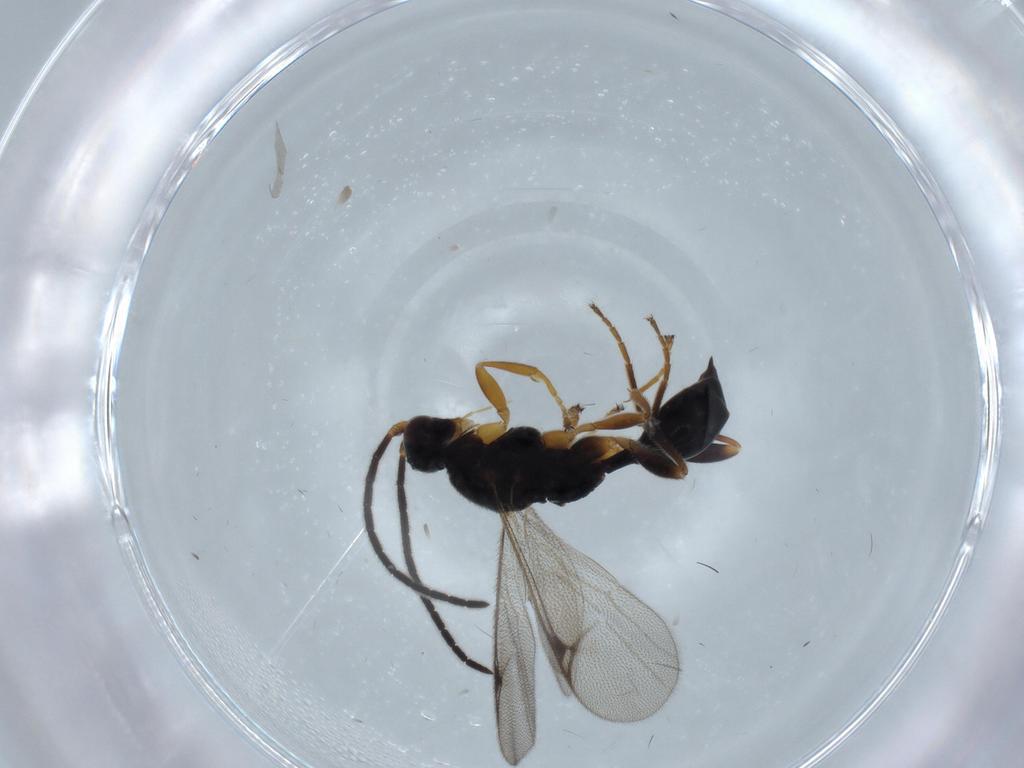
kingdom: Animalia
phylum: Arthropoda
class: Insecta
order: Hymenoptera
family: Proctotrupidae
